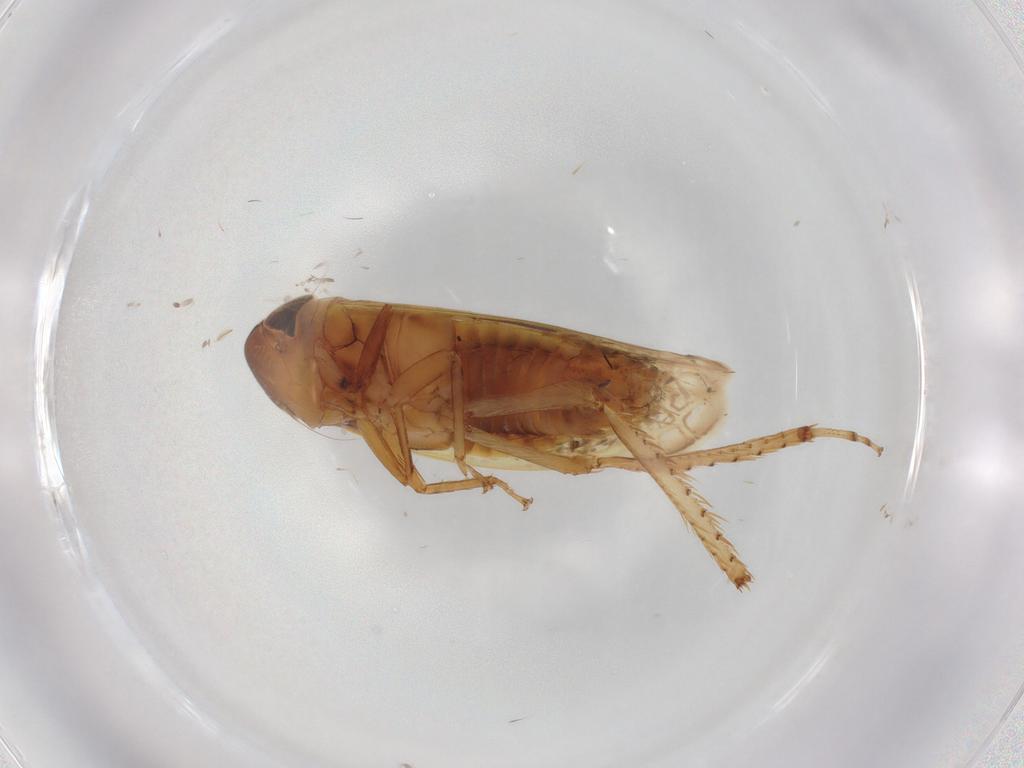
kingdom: Animalia
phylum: Arthropoda
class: Insecta
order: Hemiptera
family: Cicadellidae
